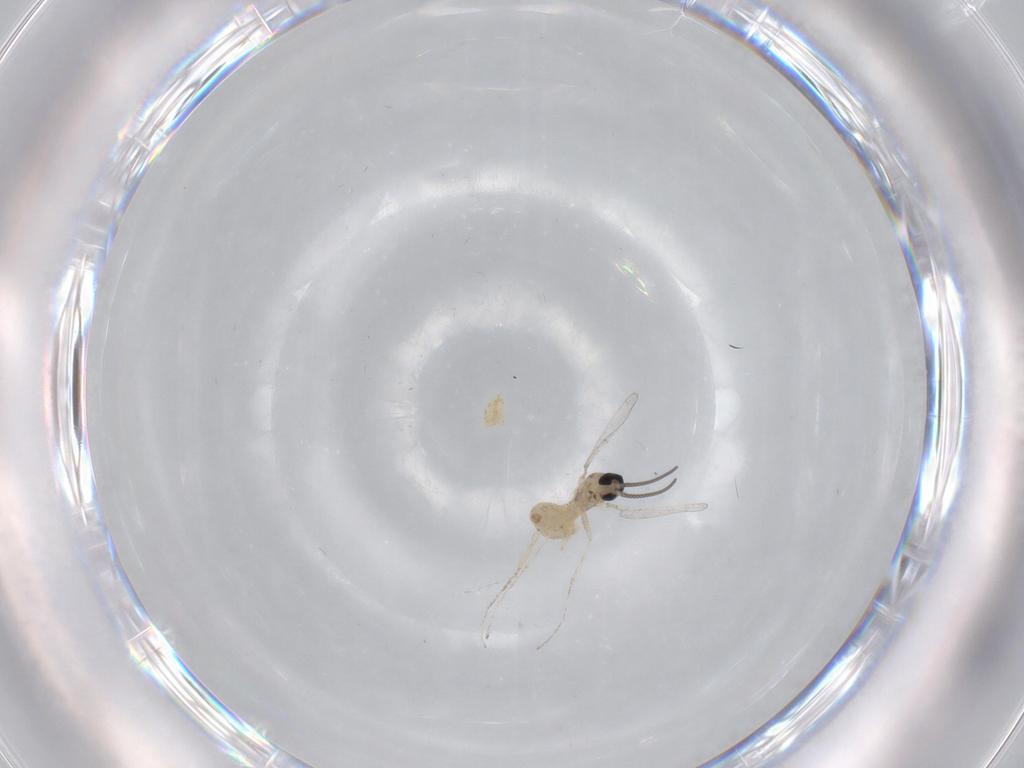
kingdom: Animalia
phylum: Arthropoda
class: Insecta
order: Diptera
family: Cecidomyiidae
